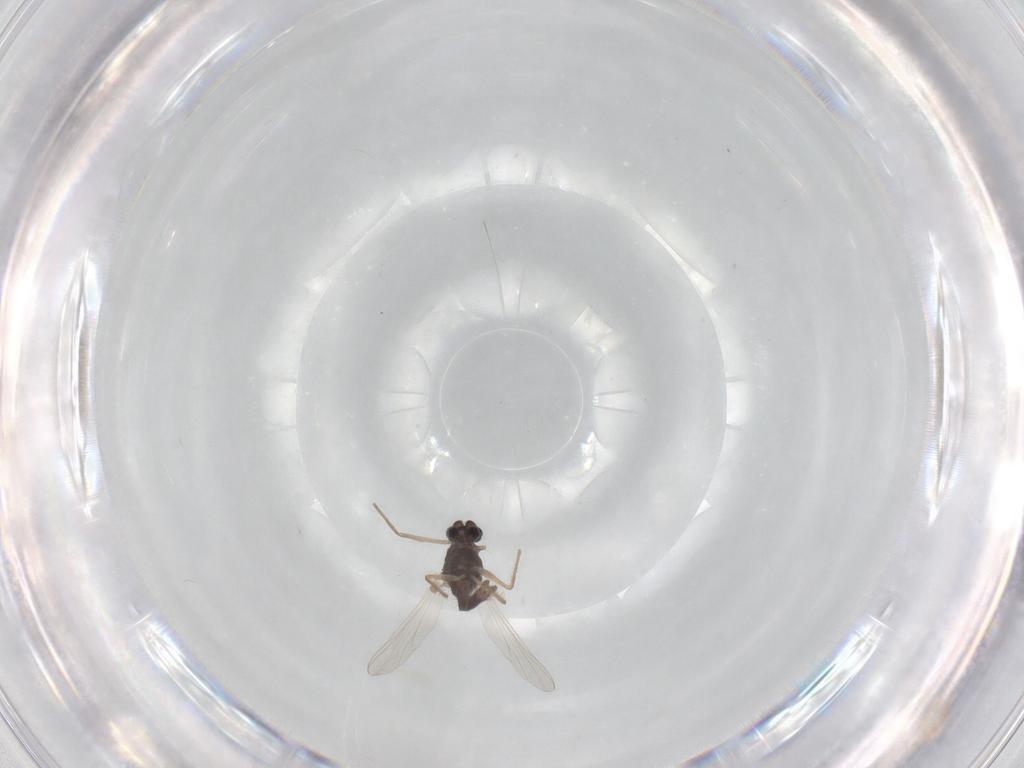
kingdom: Animalia
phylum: Arthropoda
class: Insecta
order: Diptera
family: Chironomidae
